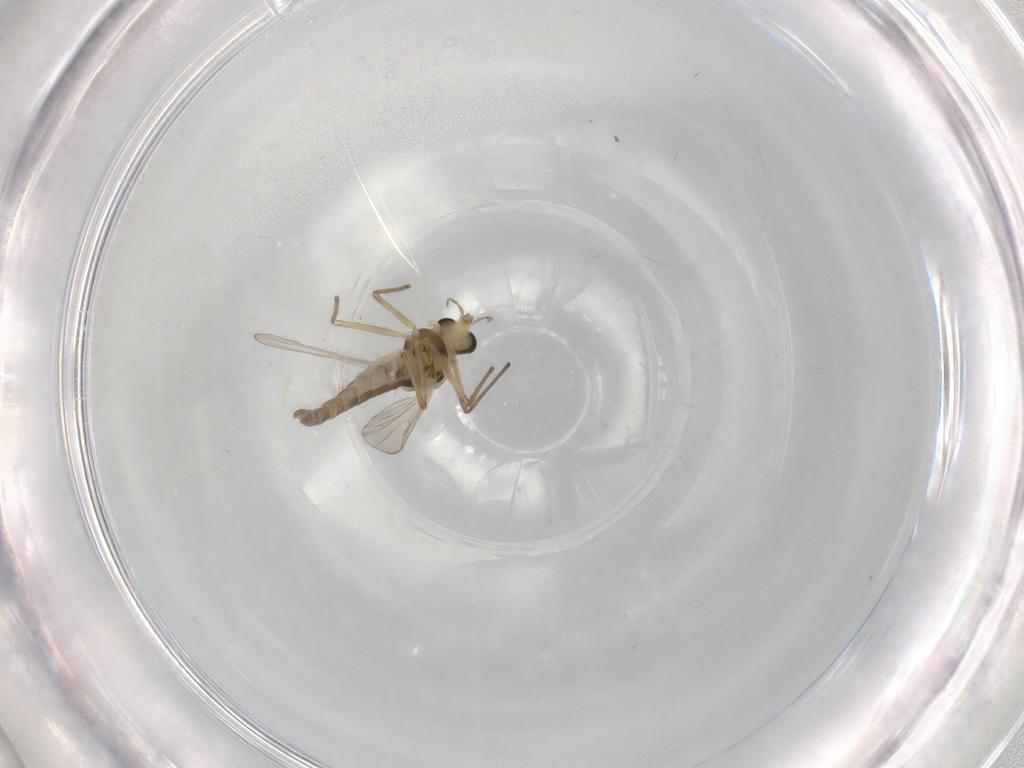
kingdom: Animalia
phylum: Arthropoda
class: Insecta
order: Diptera
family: Chironomidae
